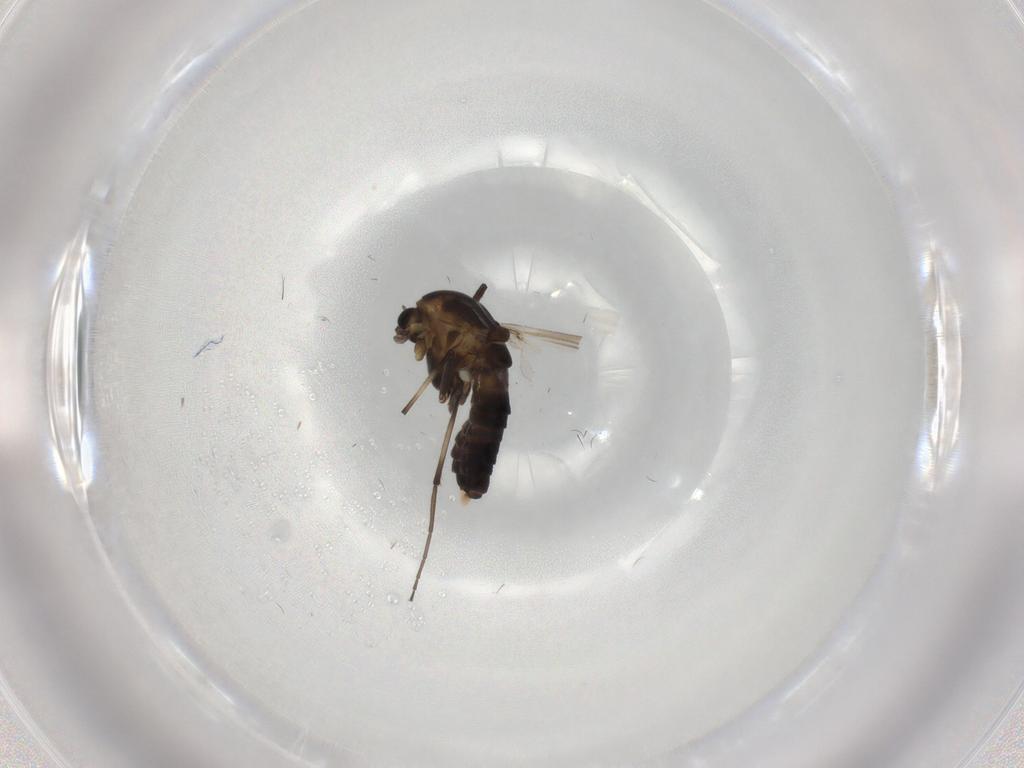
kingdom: Animalia
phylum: Arthropoda
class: Insecta
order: Diptera
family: Chironomidae
